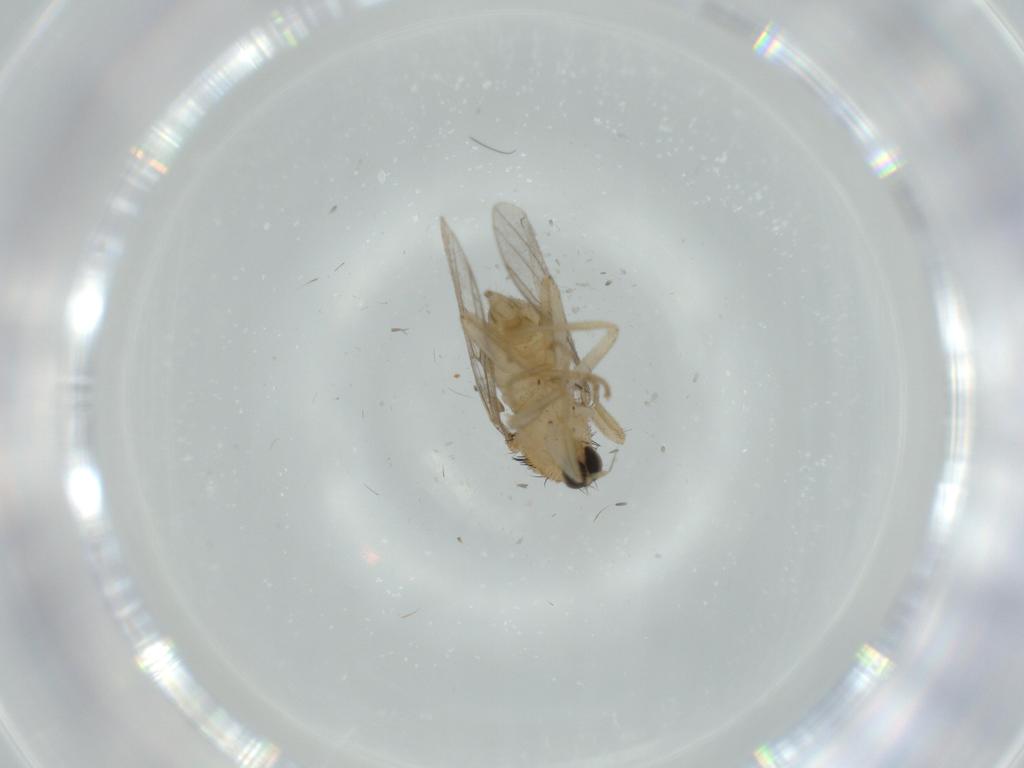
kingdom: Animalia
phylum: Arthropoda
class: Insecta
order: Diptera
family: Hybotidae
